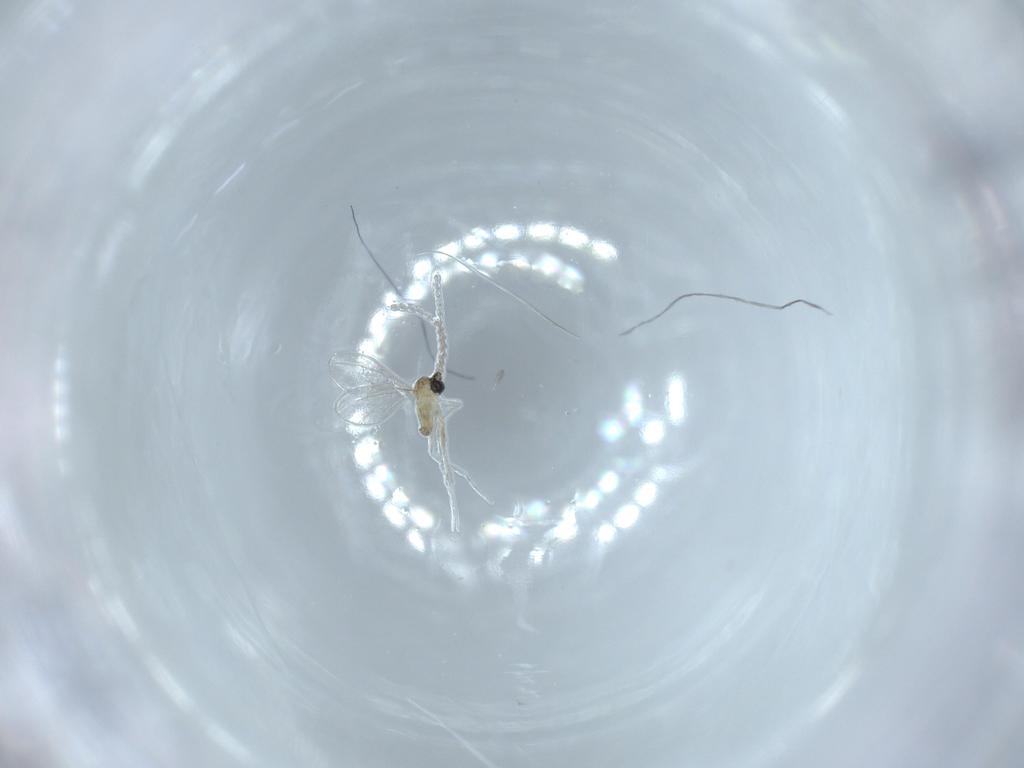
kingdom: Animalia
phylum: Arthropoda
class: Insecta
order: Diptera
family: Cecidomyiidae
